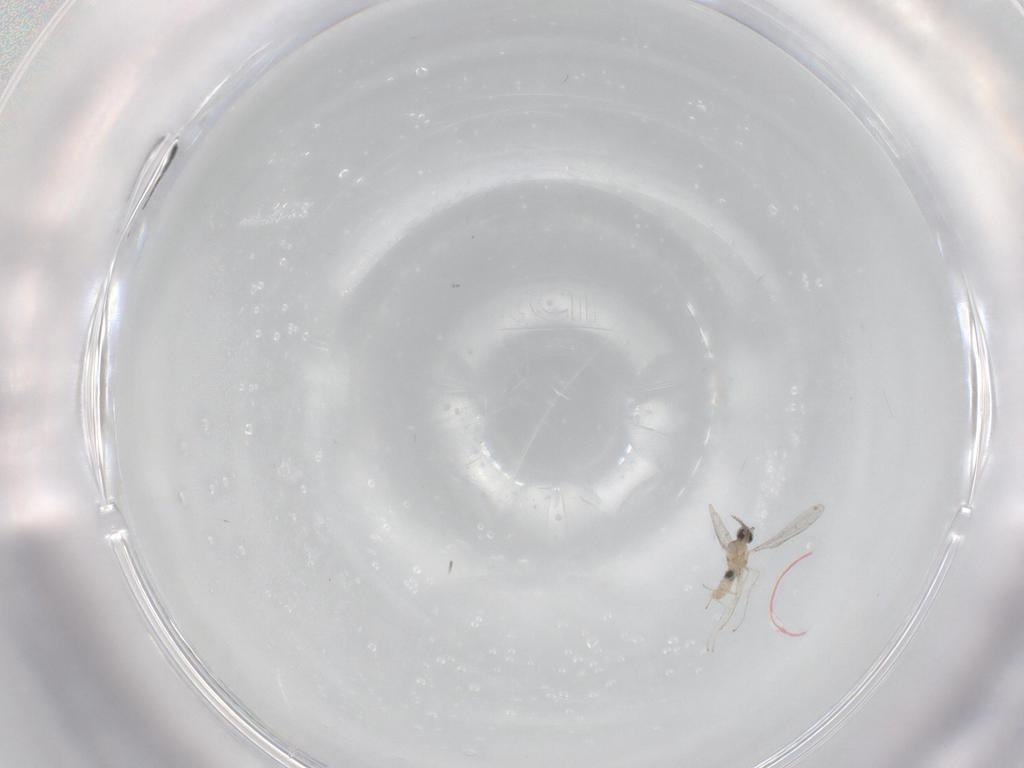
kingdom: Animalia
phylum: Arthropoda
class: Insecta
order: Diptera
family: Cecidomyiidae
